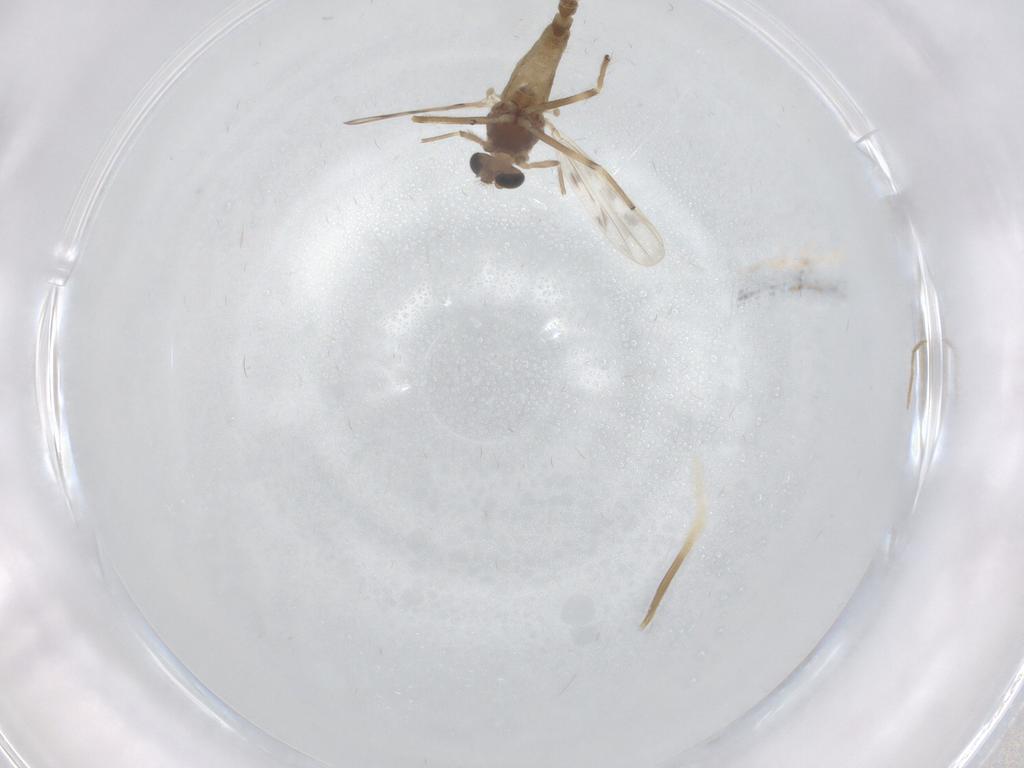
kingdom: Animalia
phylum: Arthropoda
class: Insecta
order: Diptera
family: Chironomidae
